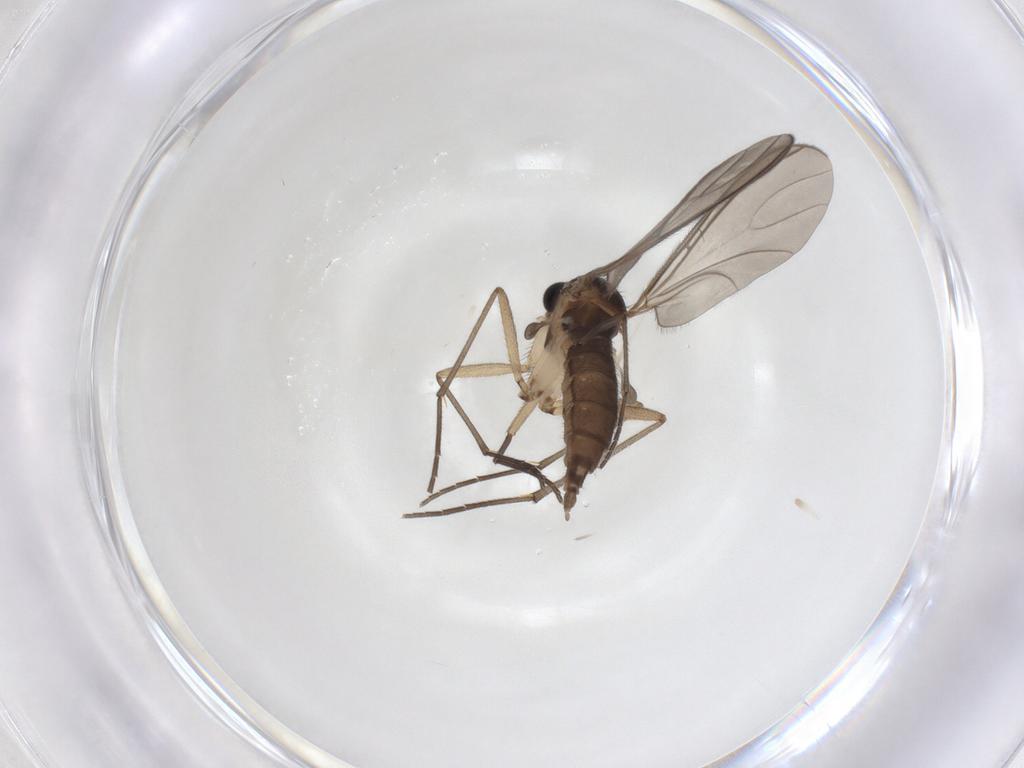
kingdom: Animalia
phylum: Arthropoda
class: Insecta
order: Diptera
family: Sciaridae
